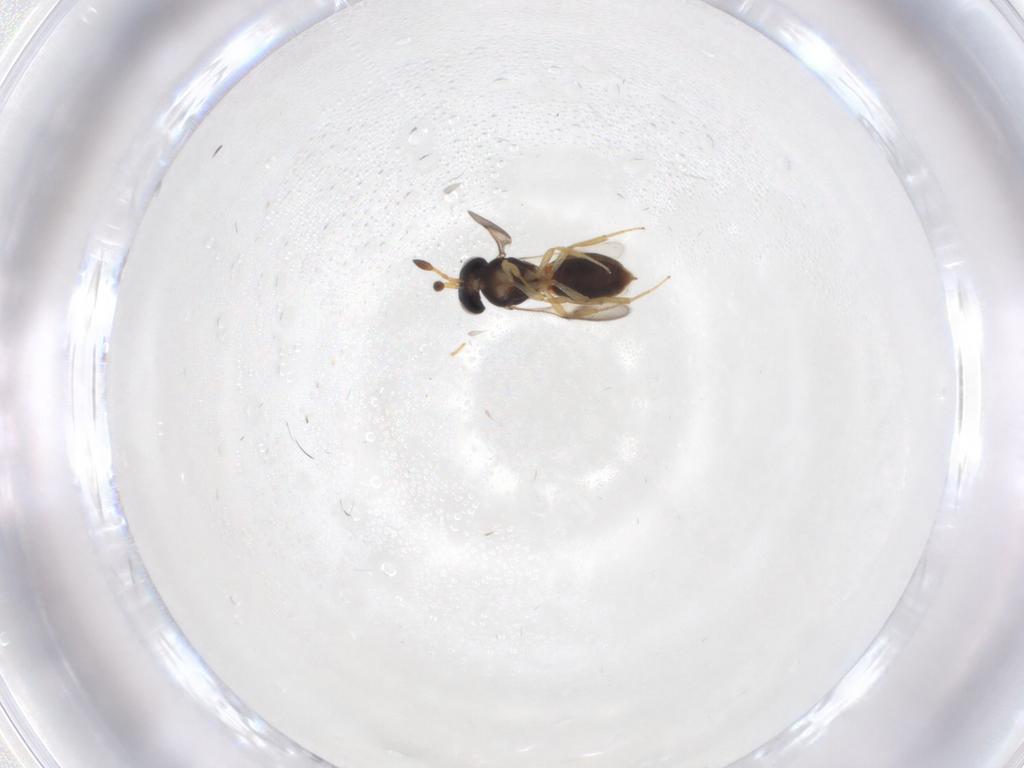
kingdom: Animalia
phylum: Arthropoda
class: Insecta
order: Hymenoptera
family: Scelionidae
